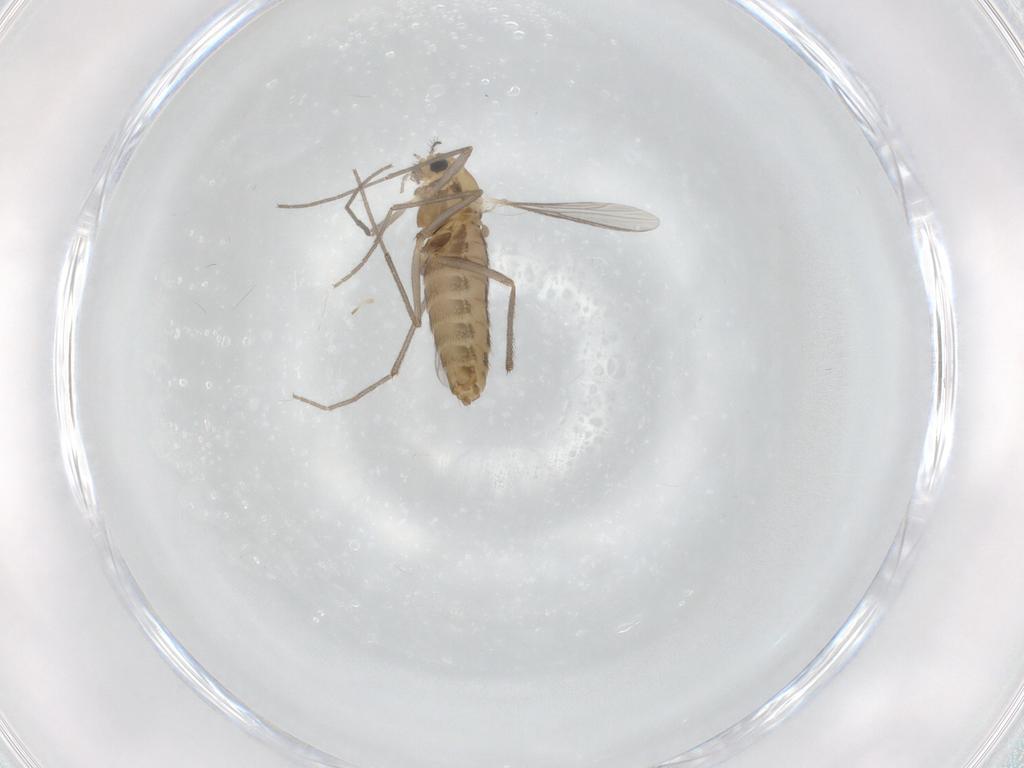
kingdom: Animalia
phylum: Arthropoda
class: Insecta
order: Diptera
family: Chironomidae
